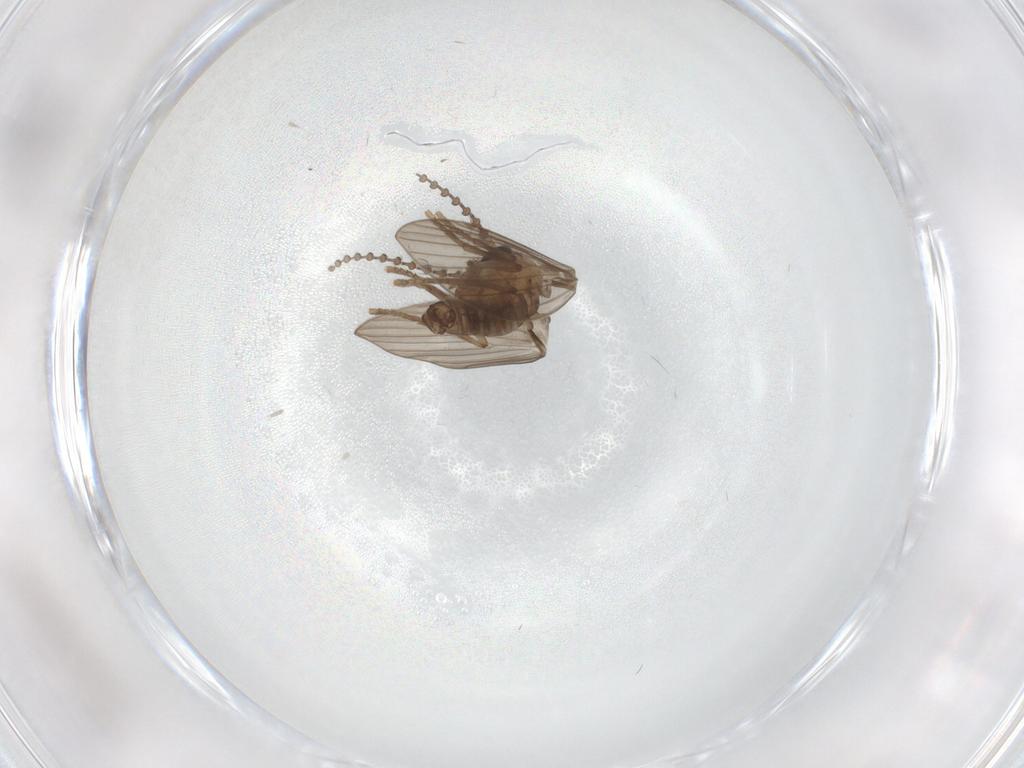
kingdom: Animalia
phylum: Arthropoda
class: Insecta
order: Diptera
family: Psychodidae
